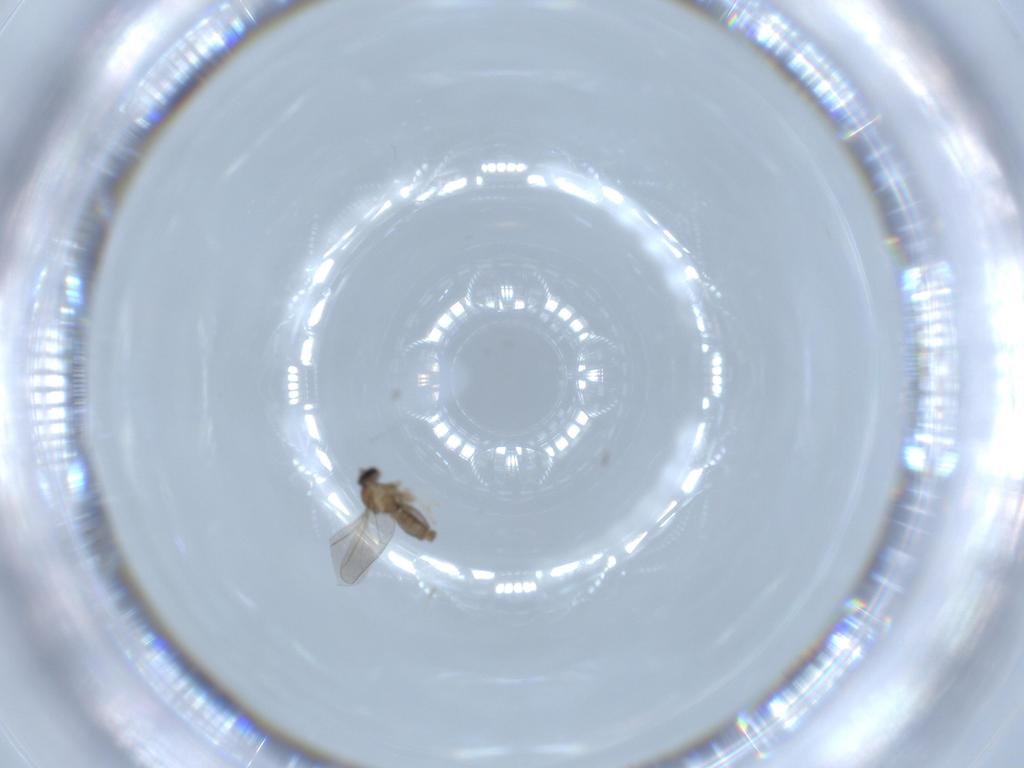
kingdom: Animalia
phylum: Arthropoda
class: Insecta
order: Diptera
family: Cecidomyiidae
